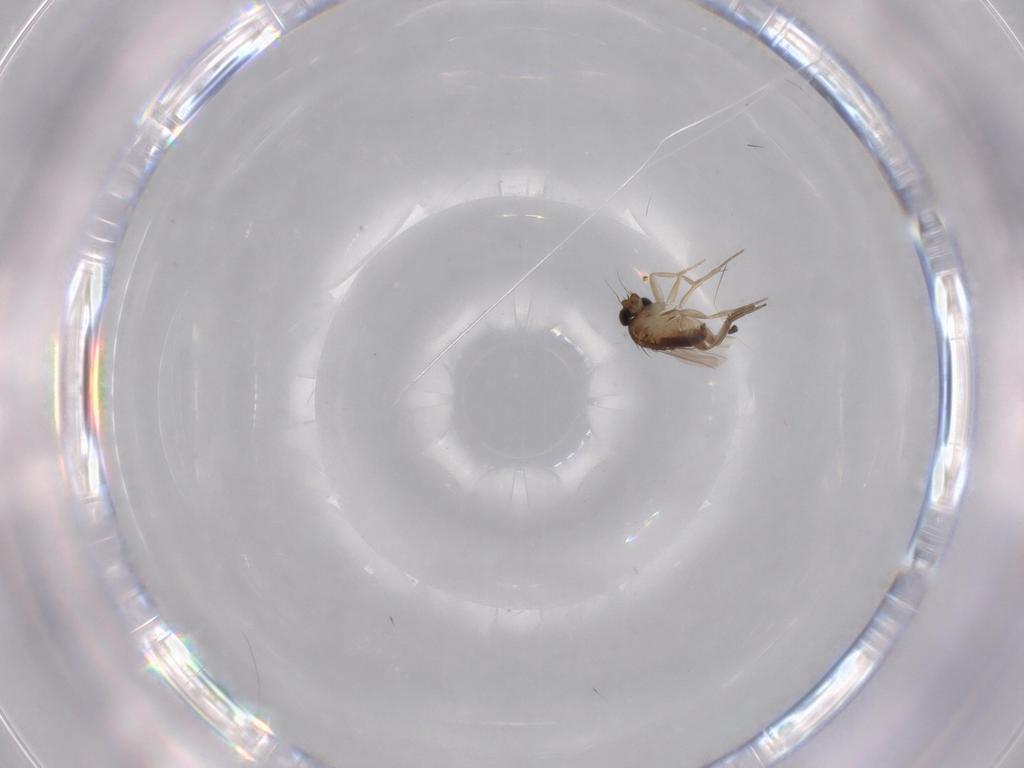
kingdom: Animalia
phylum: Arthropoda
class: Insecta
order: Diptera
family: Phoridae
